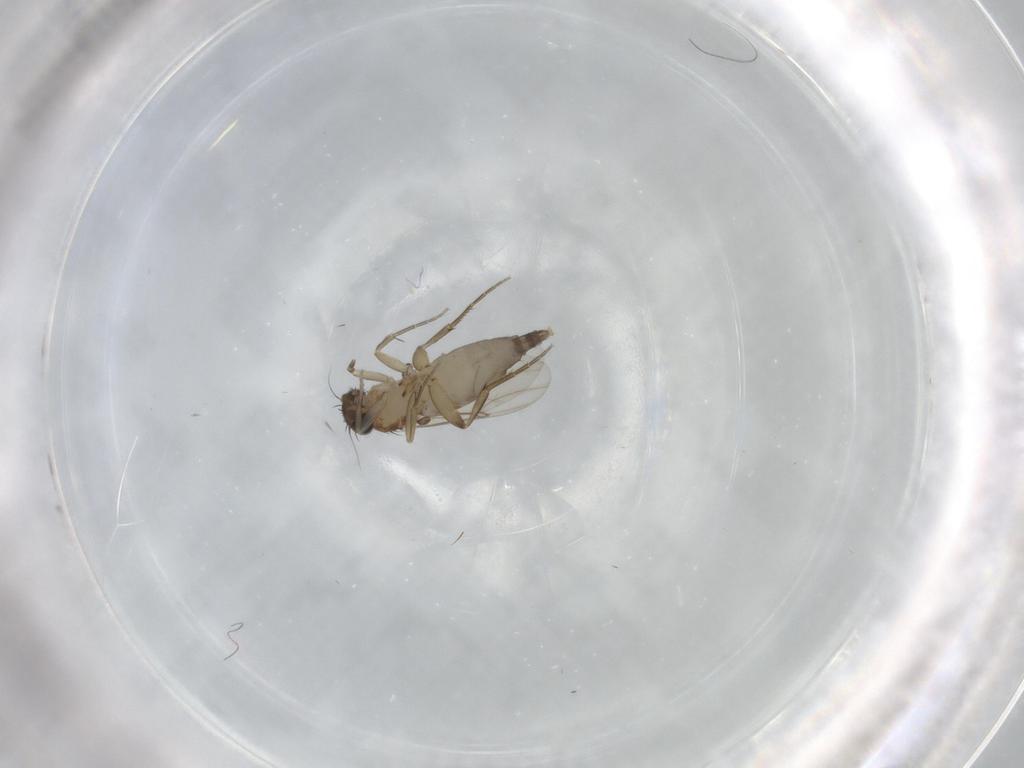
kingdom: Animalia
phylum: Arthropoda
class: Insecta
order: Diptera
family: Phoridae
